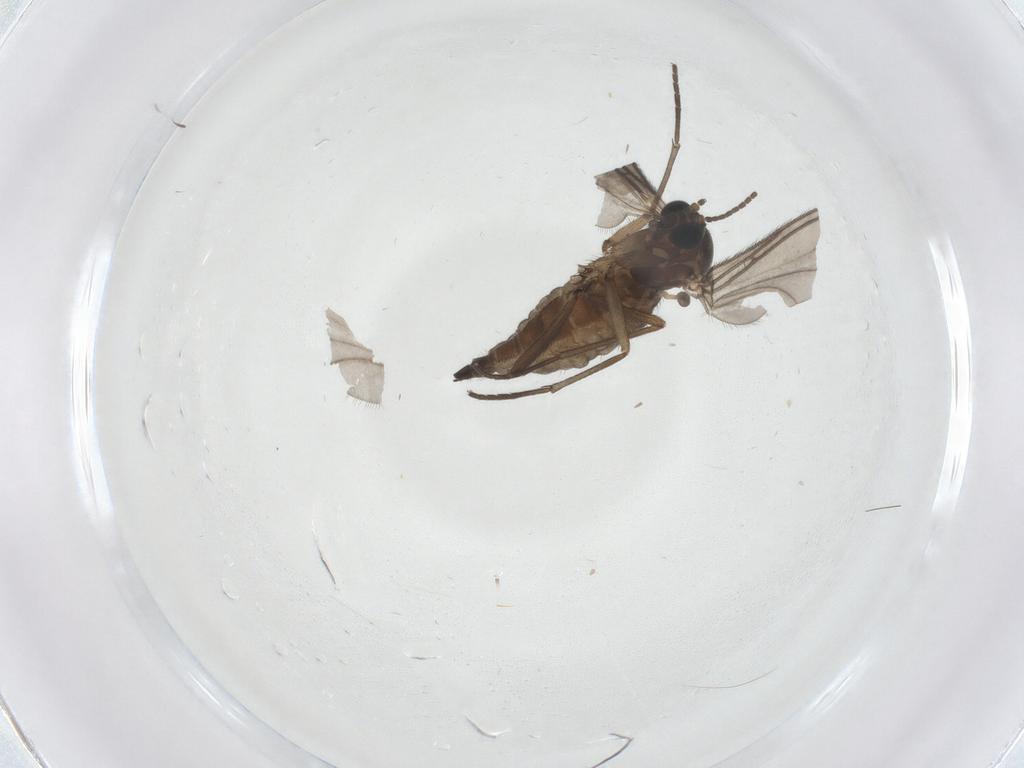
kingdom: Animalia
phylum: Arthropoda
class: Insecta
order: Diptera
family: Sciaridae
